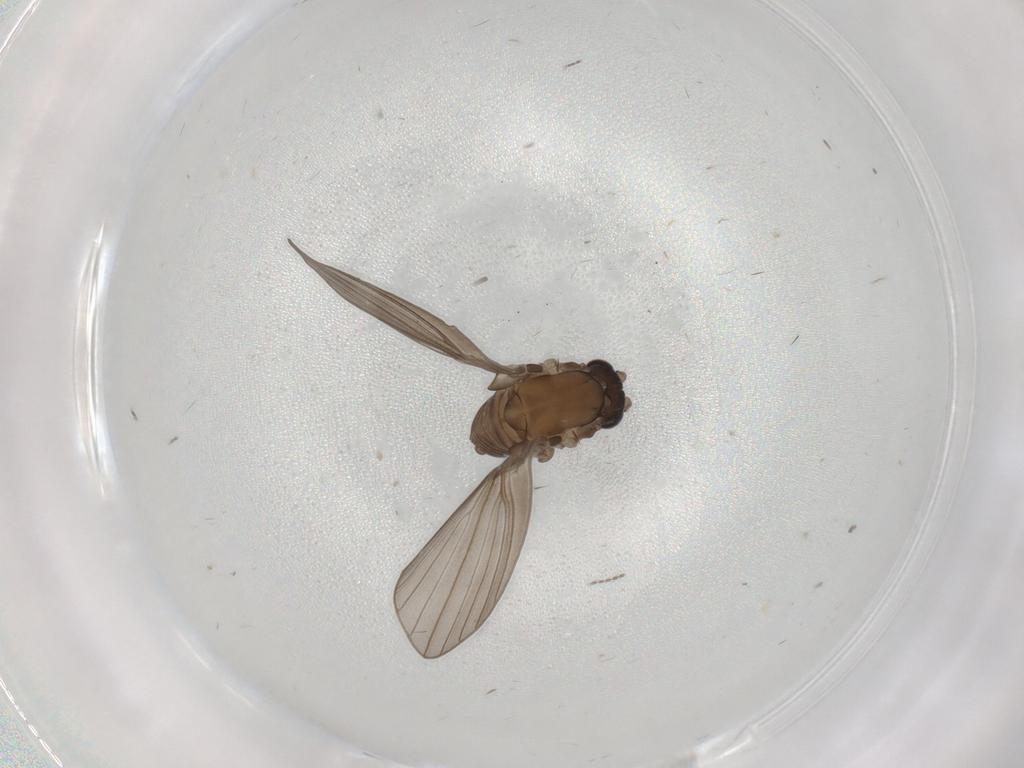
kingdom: Animalia
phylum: Arthropoda
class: Insecta
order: Diptera
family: Psychodidae
